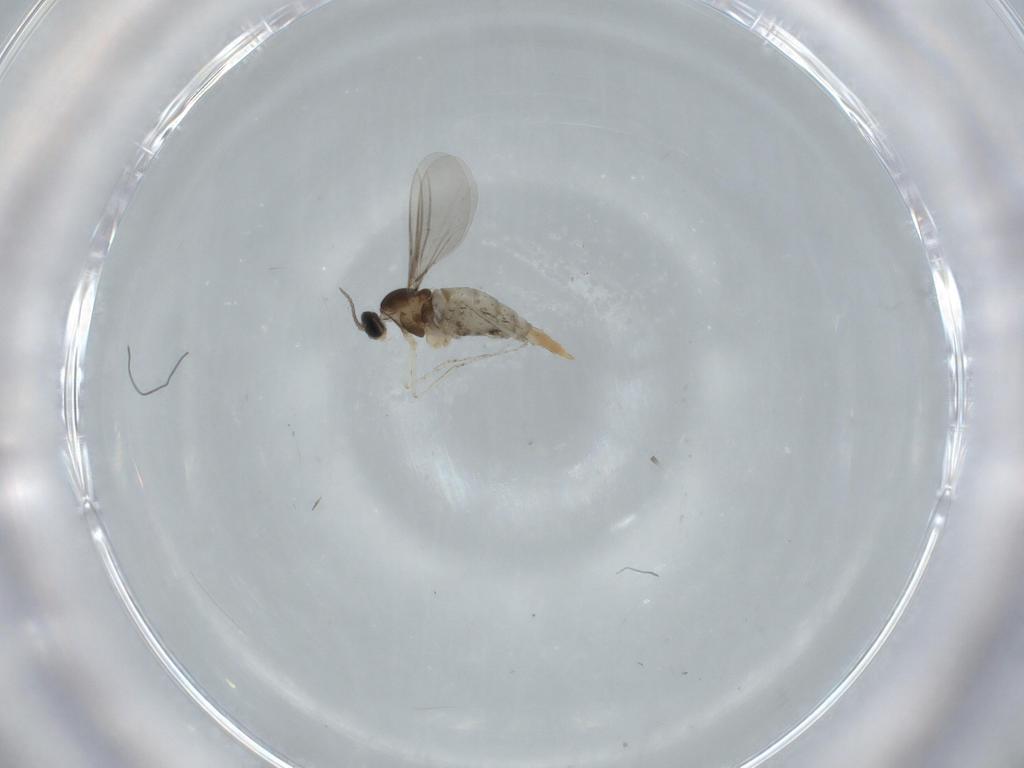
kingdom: Animalia
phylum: Arthropoda
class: Insecta
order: Diptera
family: Cecidomyiidae
